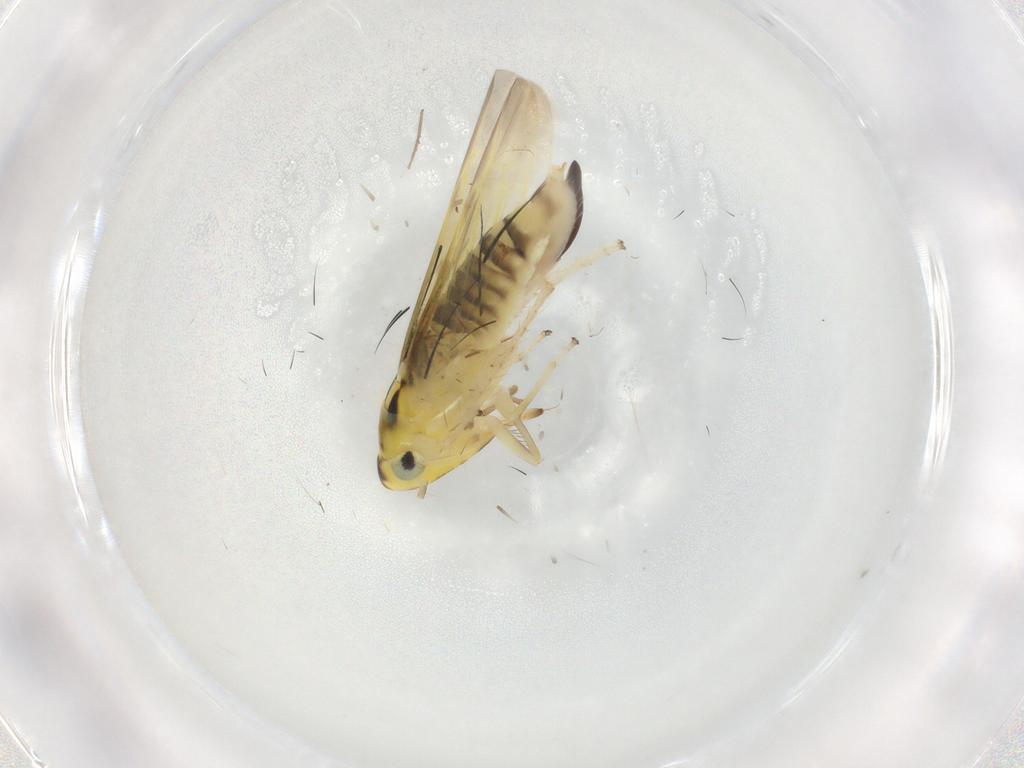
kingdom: Animalia
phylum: Arthropoda
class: Insecta
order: Hemiptera
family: Cicadellidae
